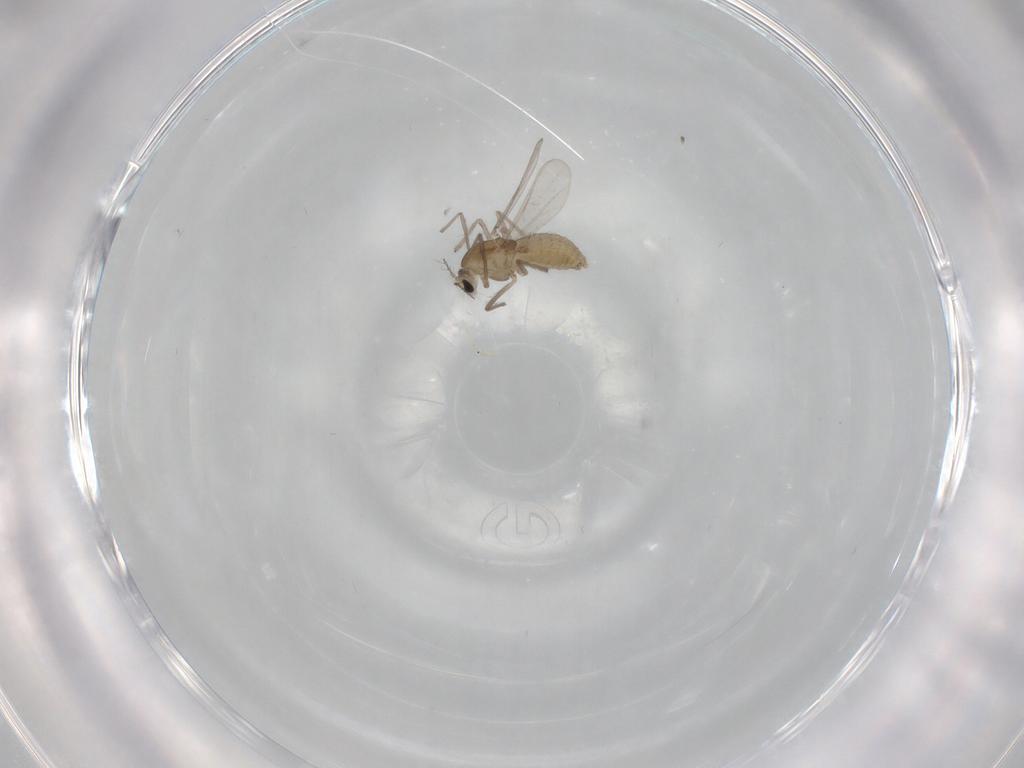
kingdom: Animalia
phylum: Arthropoda
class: Insecta
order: Diptera
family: Chironomidae
